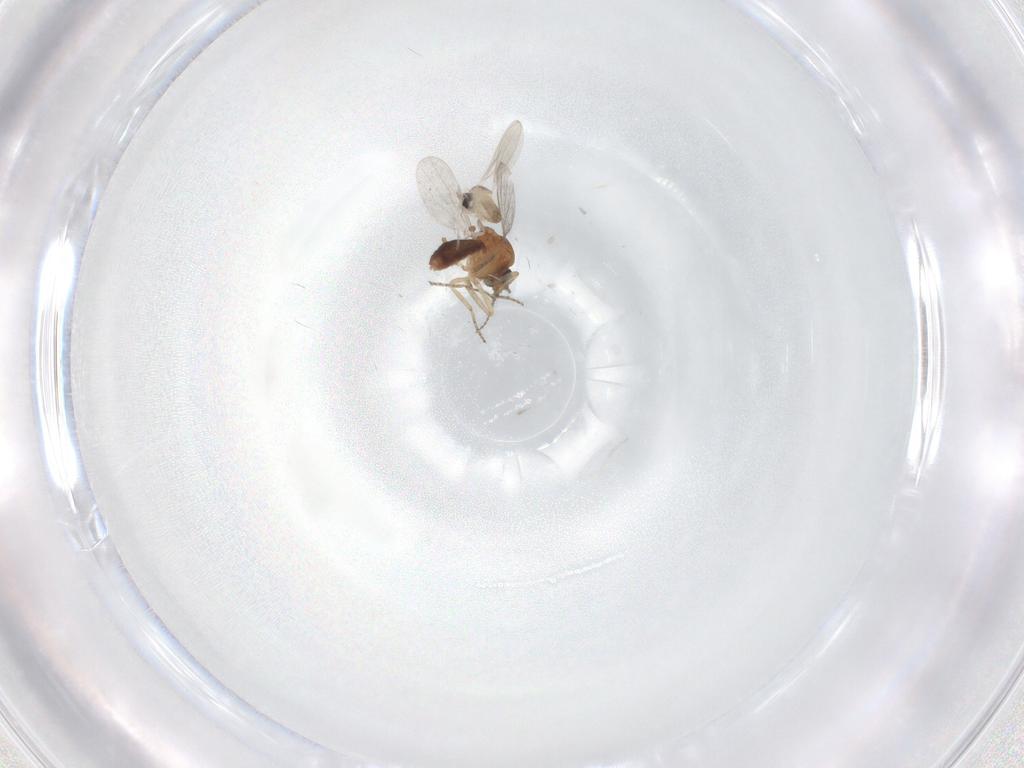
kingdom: Animalia
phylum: Arthropoda
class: Insecta
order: Diptera
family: Ceratopogonidae
